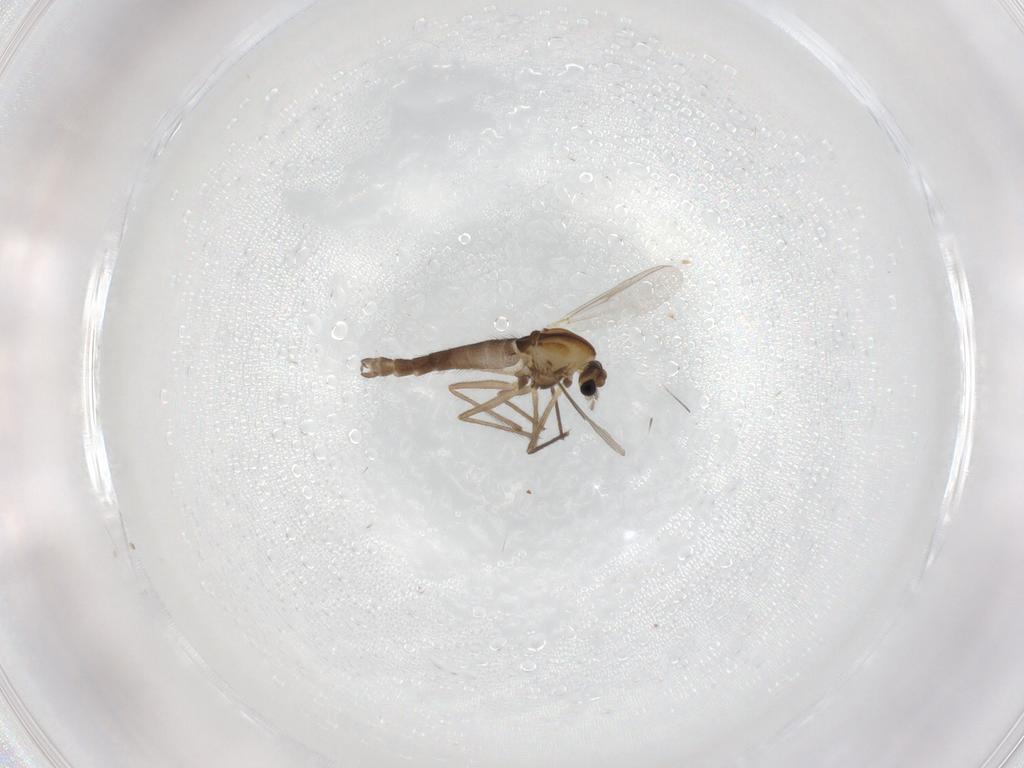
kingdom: Animalia
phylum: Arthropoda
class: Insecta
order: Diptera
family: Chironomidae
